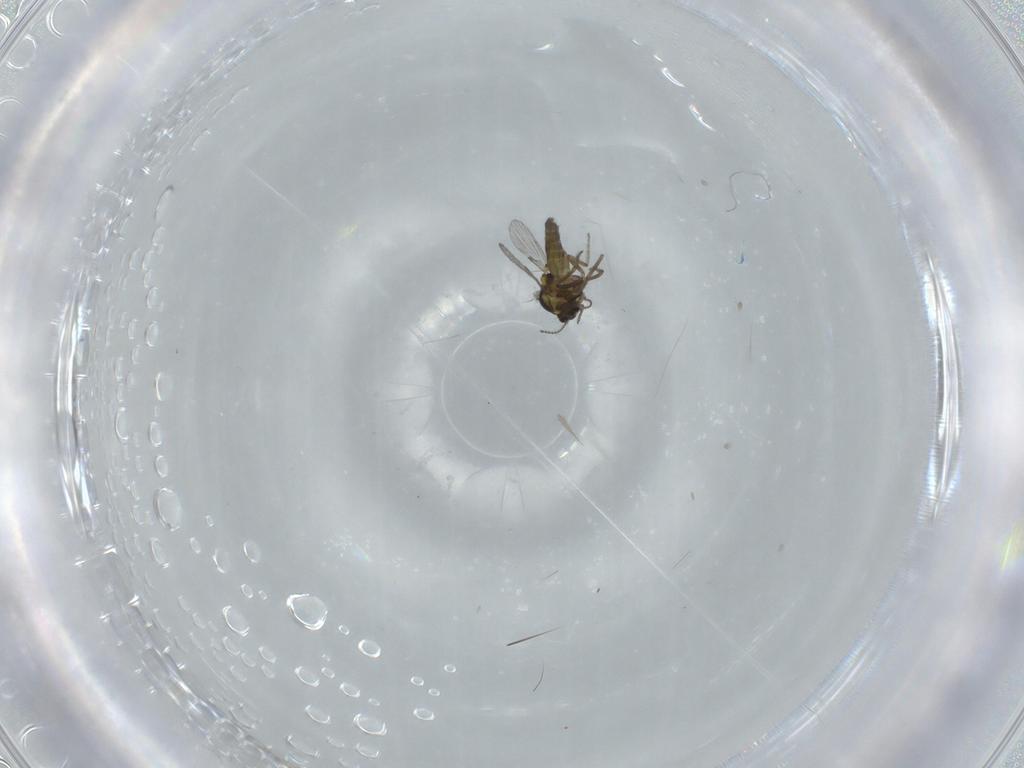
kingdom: Animalia
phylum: Arthropoda
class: Insecta
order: Diptera
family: Ceratopogonidae
